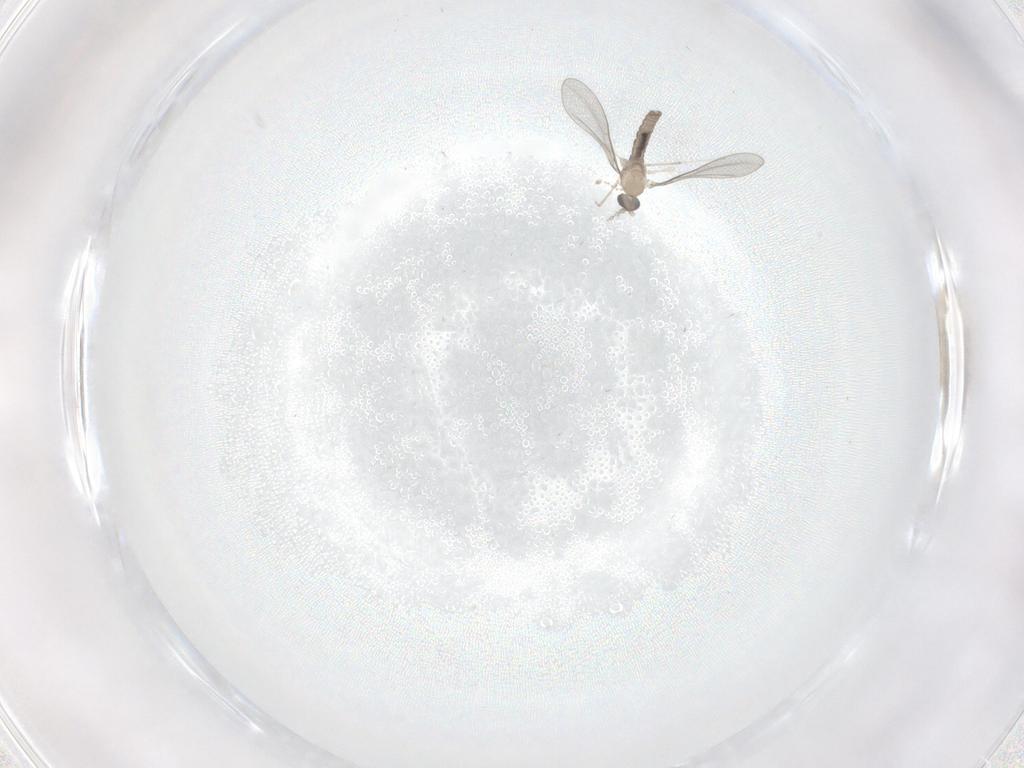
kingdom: Animalia
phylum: Arthropoda
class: Insecta
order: Diptera
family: Cecidomyiidae
